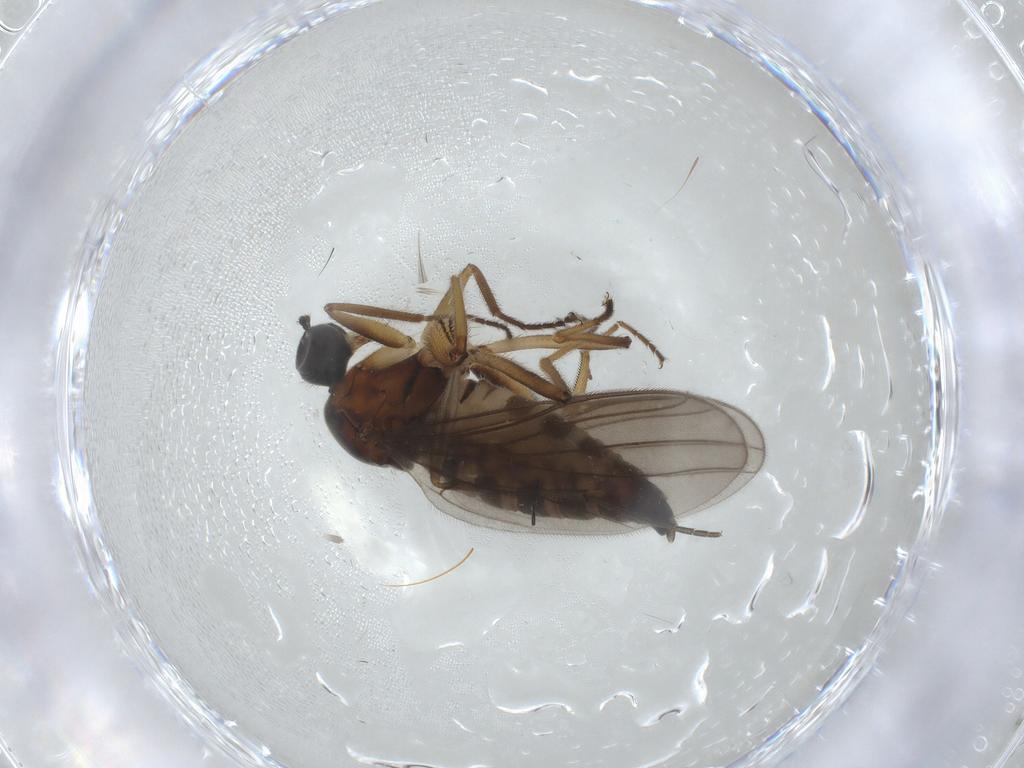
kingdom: Animalia
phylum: Arthropoda
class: Insecta
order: Diptera
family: Hybotidae
